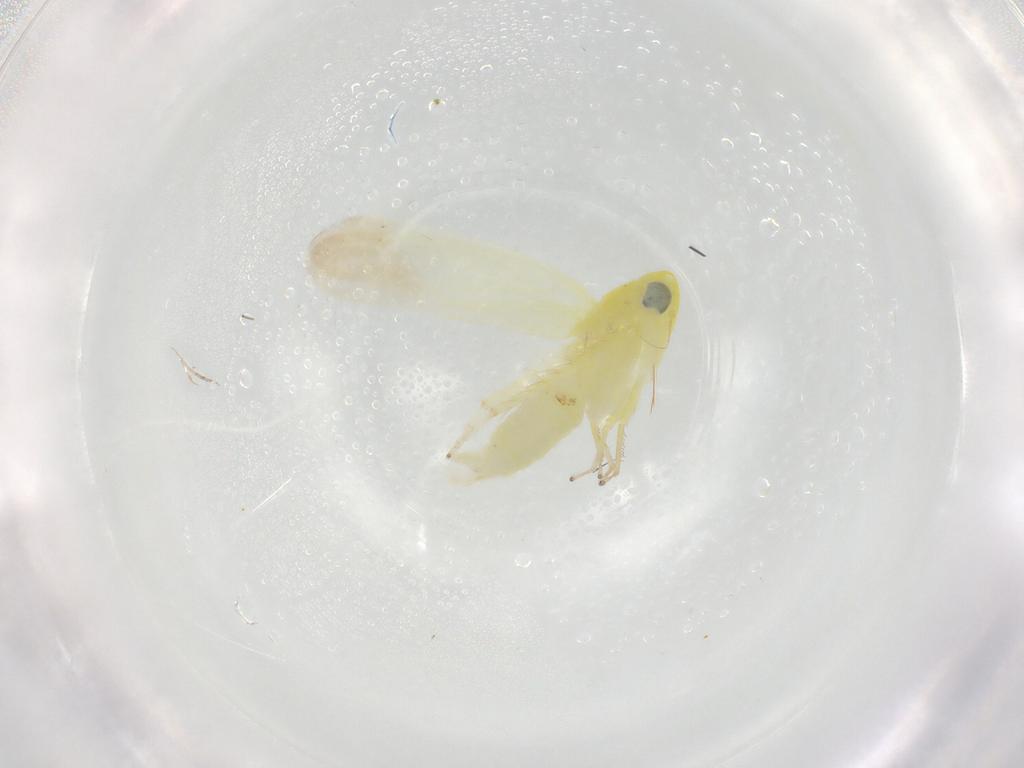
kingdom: Animalia
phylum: Arthropoda
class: Insecta
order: Hemiptera
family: Cicadellidae
